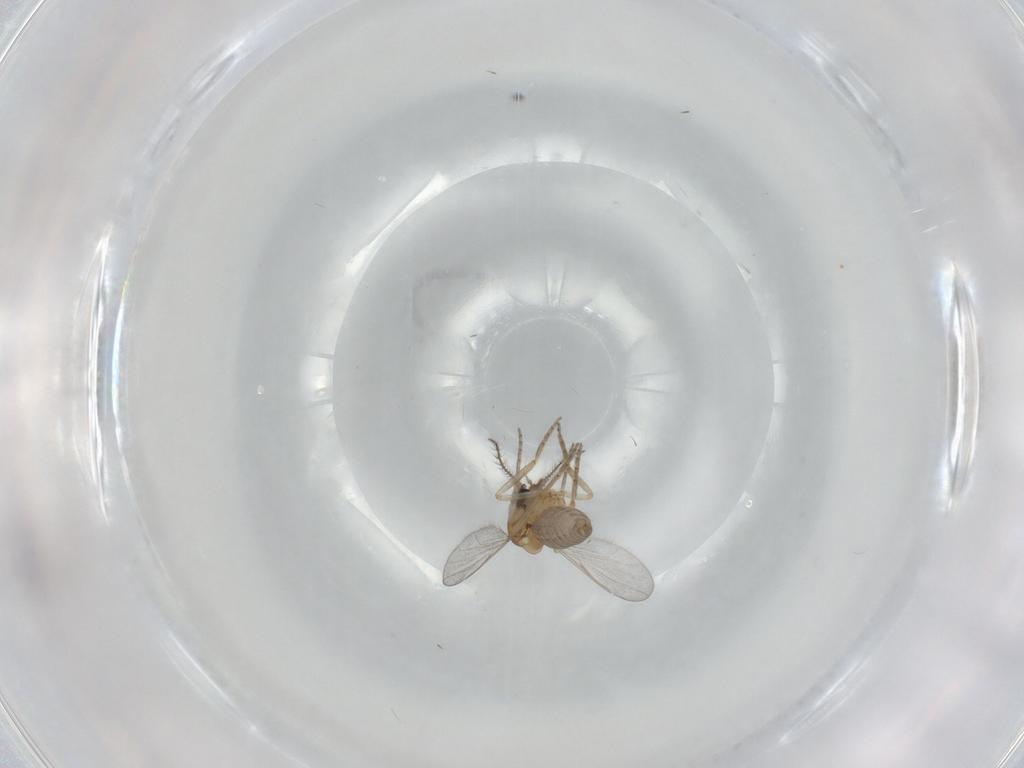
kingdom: Animalia
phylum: Arthropoda
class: Insecta
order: Diptera
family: Ceratopogonidae
